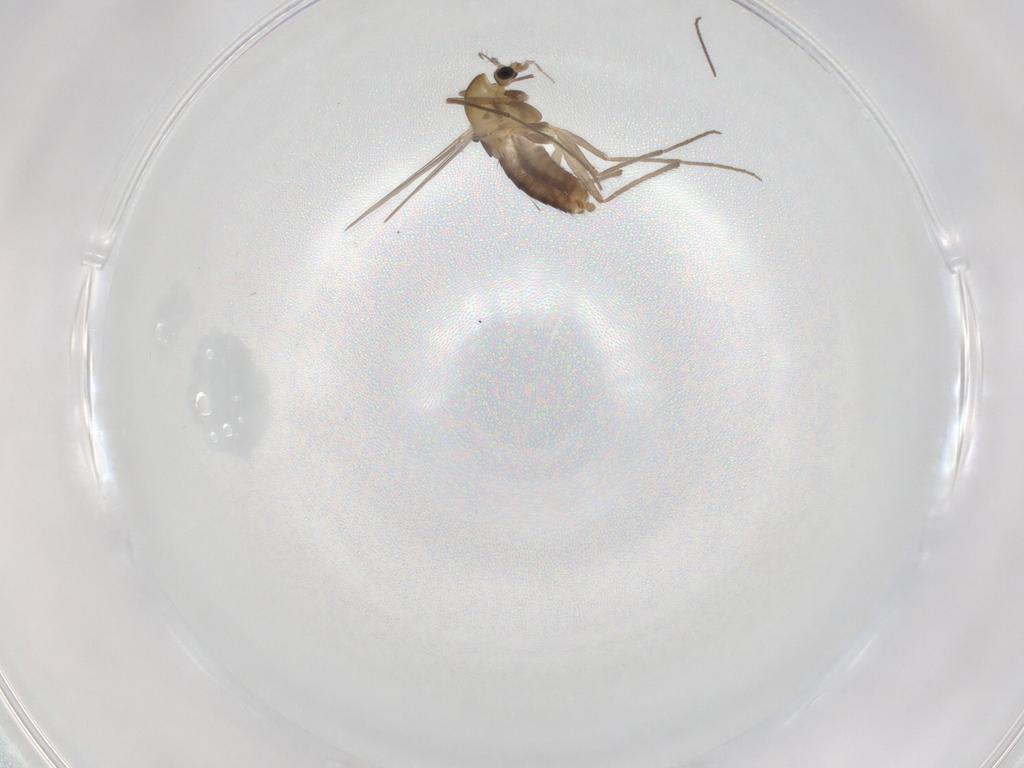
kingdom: Animalia
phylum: Arthropoda
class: Insecta
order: Diptera
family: Chironomidae
